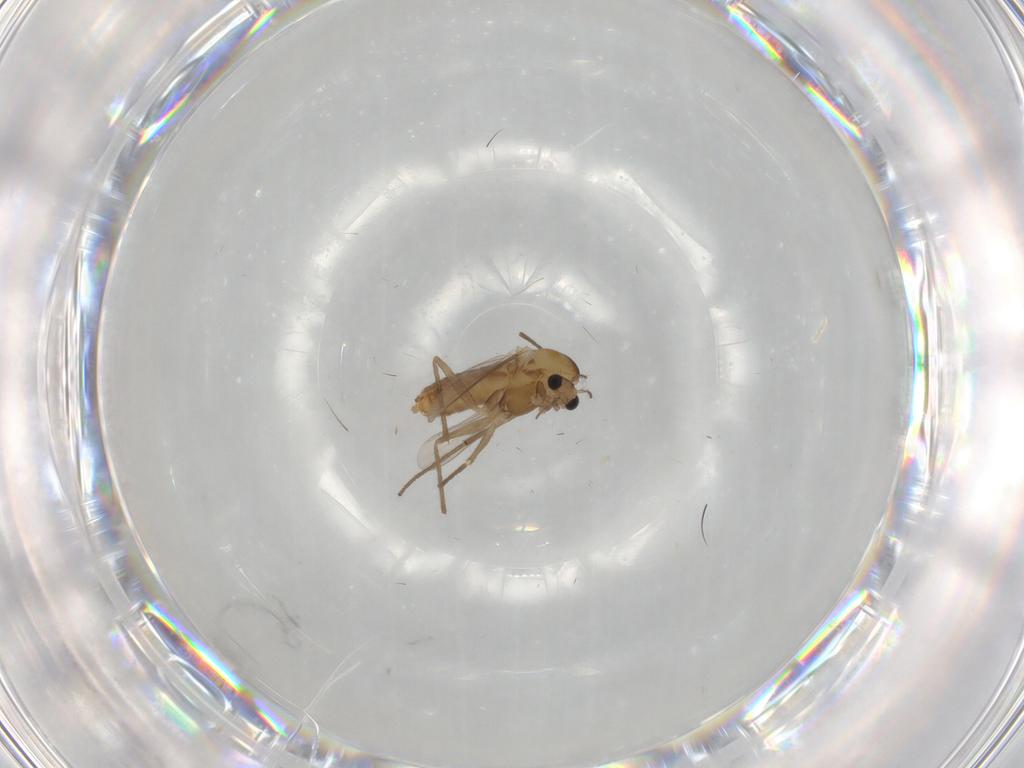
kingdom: Animalia
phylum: Arthropoda
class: Insecta
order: Diptera
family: Chironomidae
